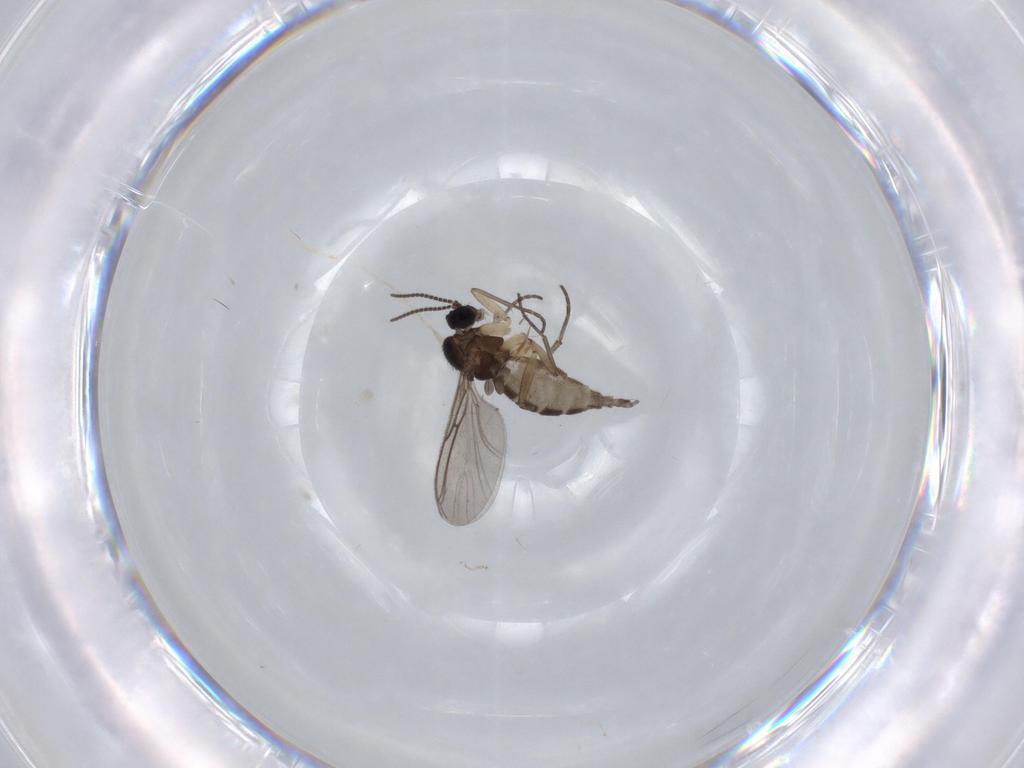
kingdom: Animalia
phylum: Arthropoda
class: Insecta
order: Diptera
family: Sciaridae
